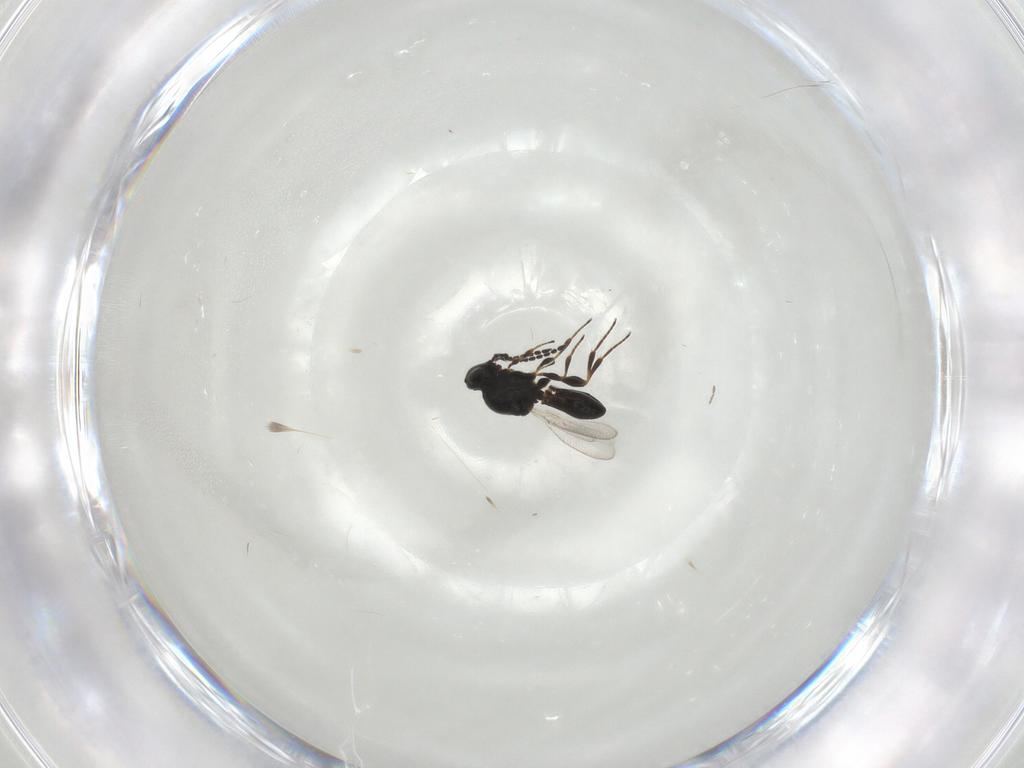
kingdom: Animalia
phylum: Arthropoda
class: Insecta
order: Hymenoptera
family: Platygastridae
